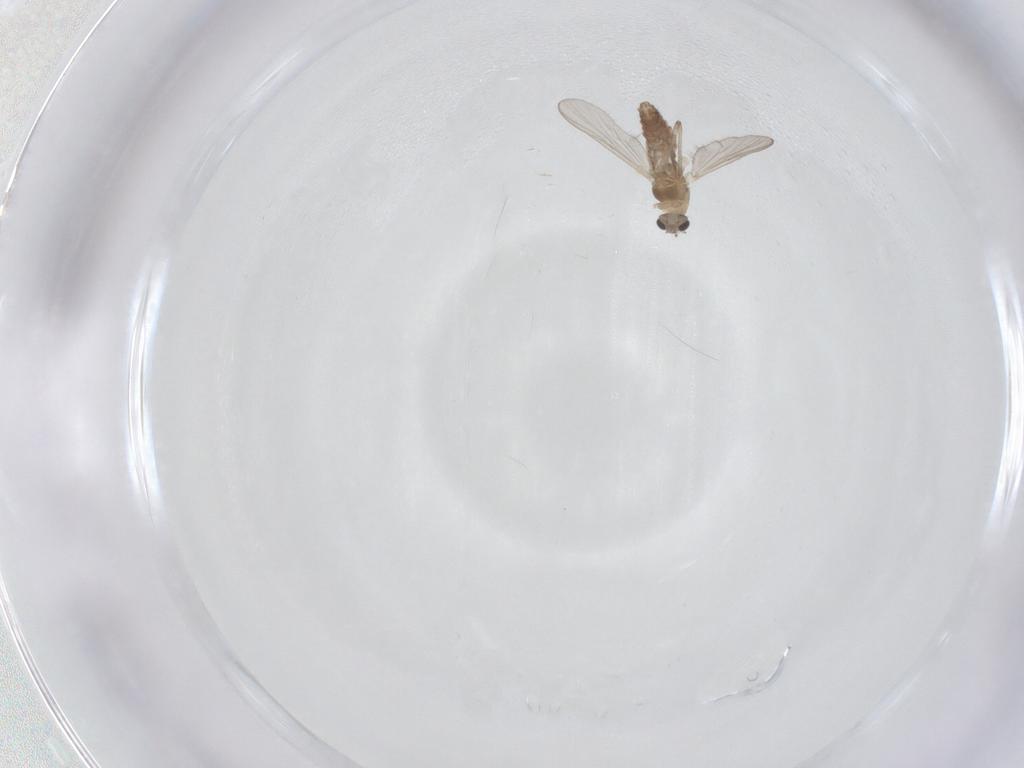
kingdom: Animalia
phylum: Arthropoda
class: Insecta
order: Diptera
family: Chironomidae
